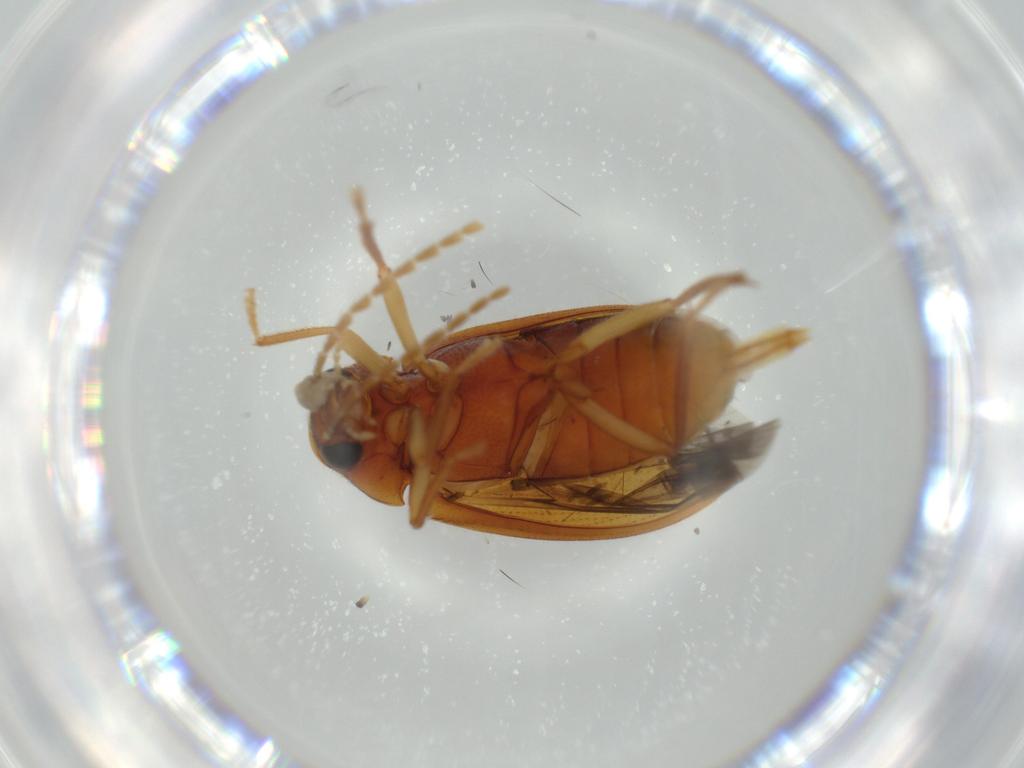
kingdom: Animalia
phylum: Arthropoda
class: Insecta
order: Coleoptera
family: Ptilodactylidae
